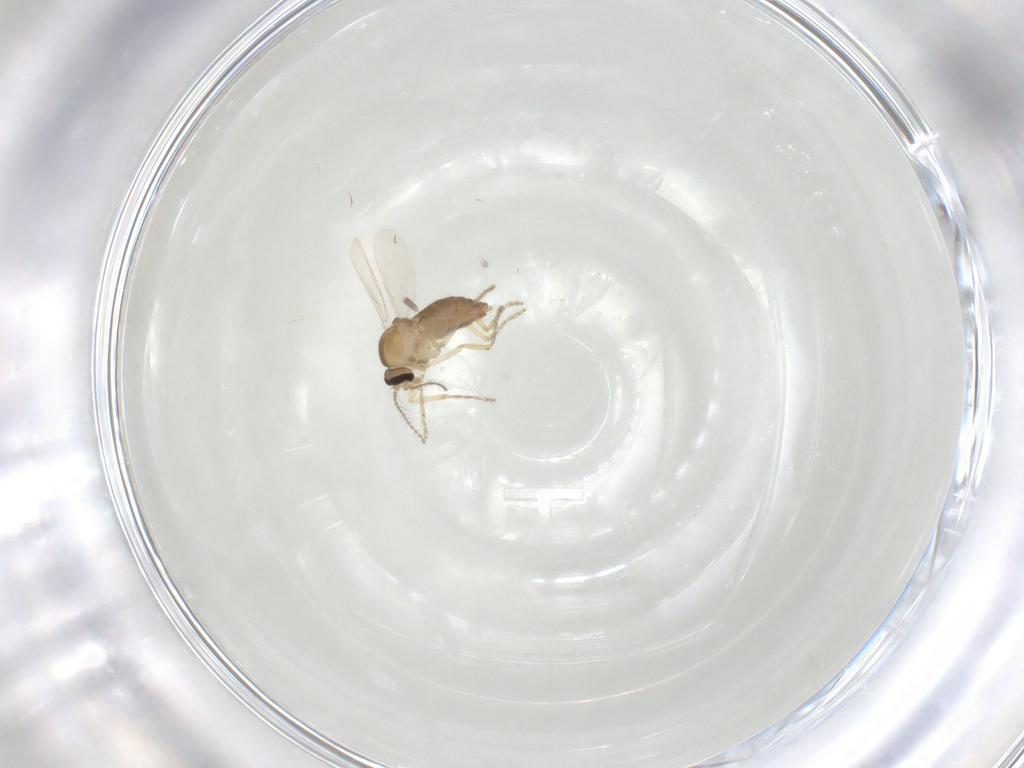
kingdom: Animalia
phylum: Arthropoda
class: Insecta
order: Diptera
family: Ceratopogonidae
